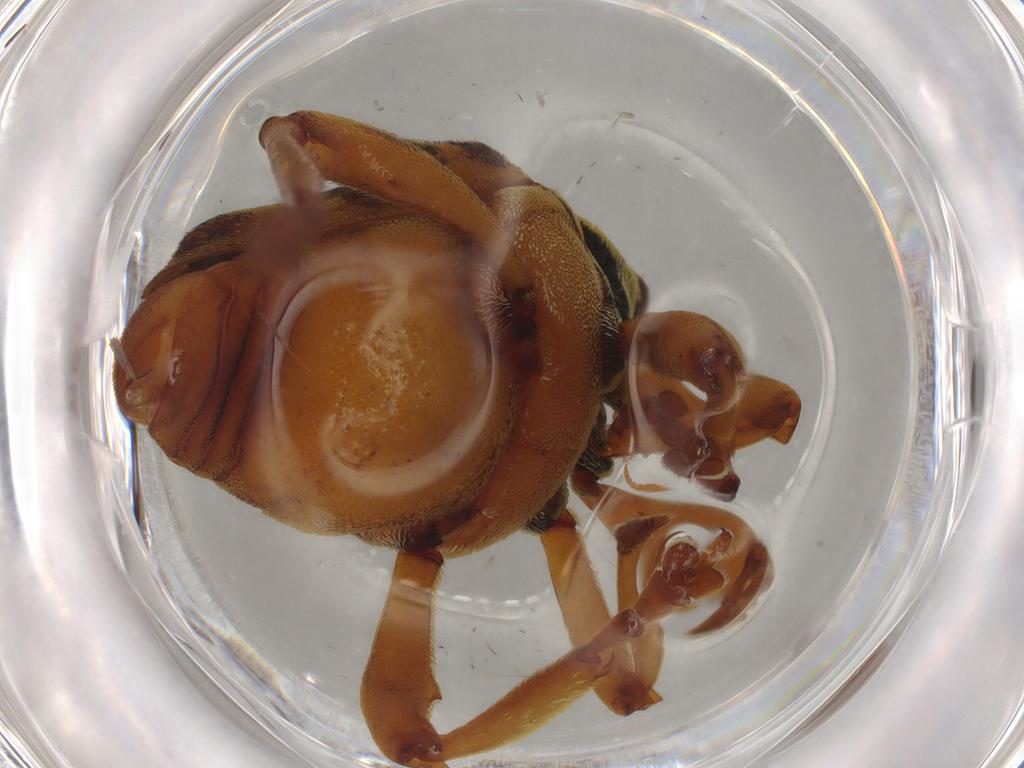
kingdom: Animalia
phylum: Arthropoda
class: Insecta
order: Coleoptera
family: Curculionidae
